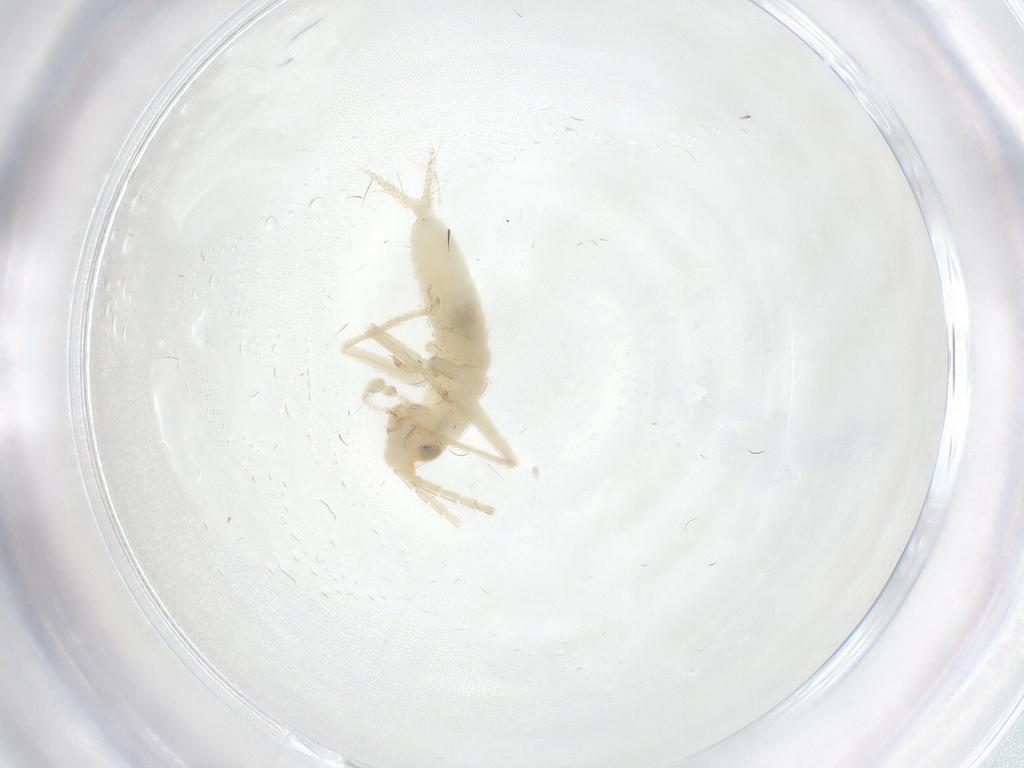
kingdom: Animalia
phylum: Arthropoda
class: Insecta
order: Orthoptera
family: Trigonidiidae
